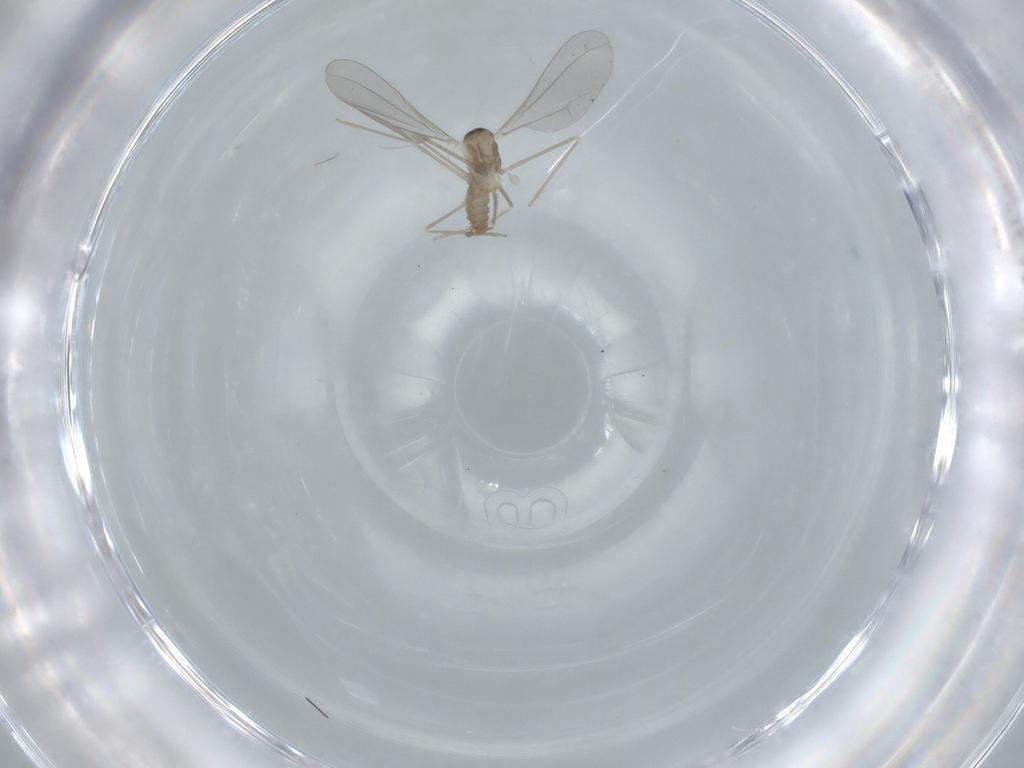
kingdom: Animalia
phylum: Arthropoda
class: Insecta
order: Diptera
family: Cecidomyiidae
